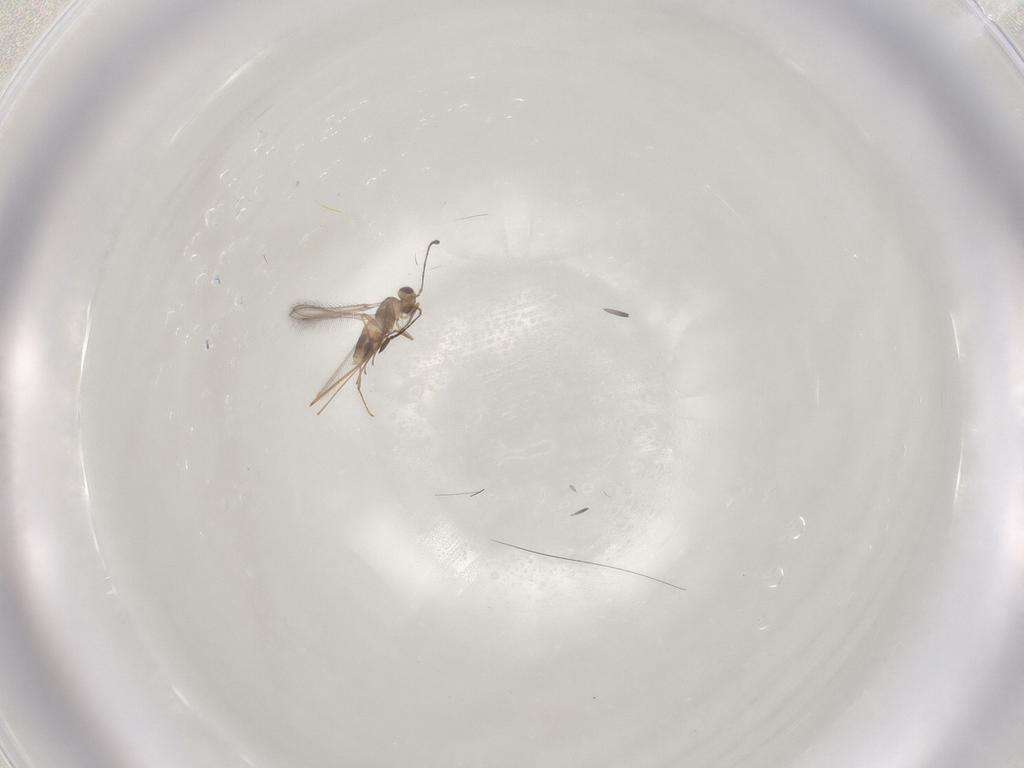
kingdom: Animalia
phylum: Arthropoda
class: Insecta
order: Hymenoptera
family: Mymaridae
